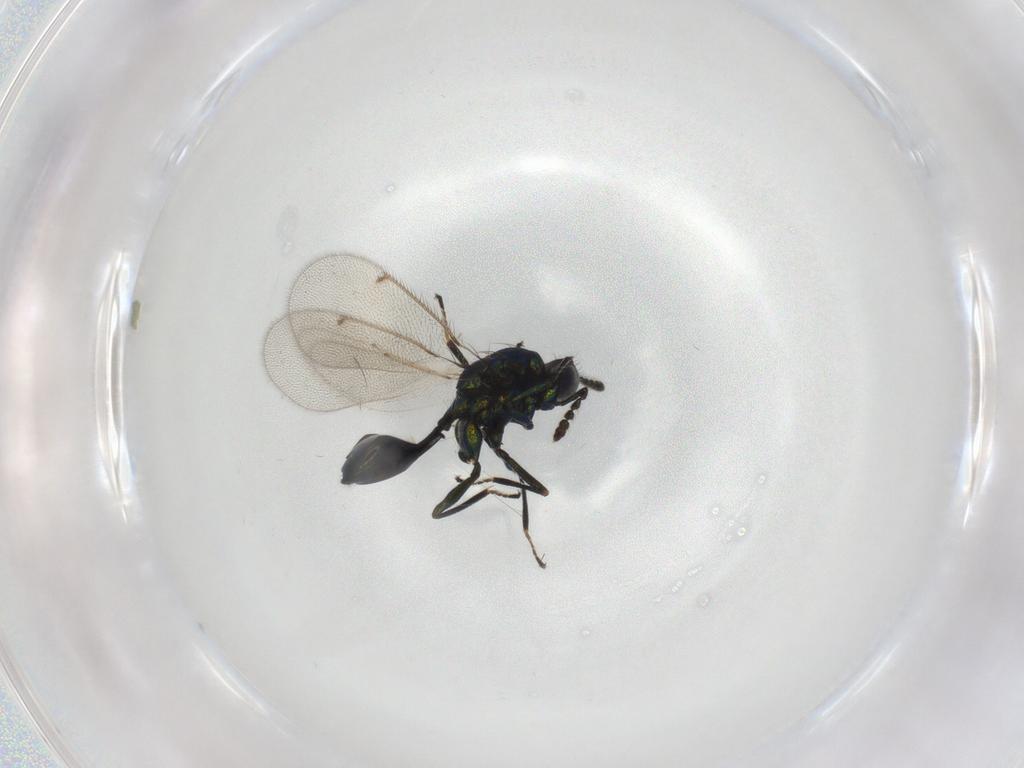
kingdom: Animalia
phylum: Arthropoda
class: Insecta
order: Hymenoptera
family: Eulophidae
